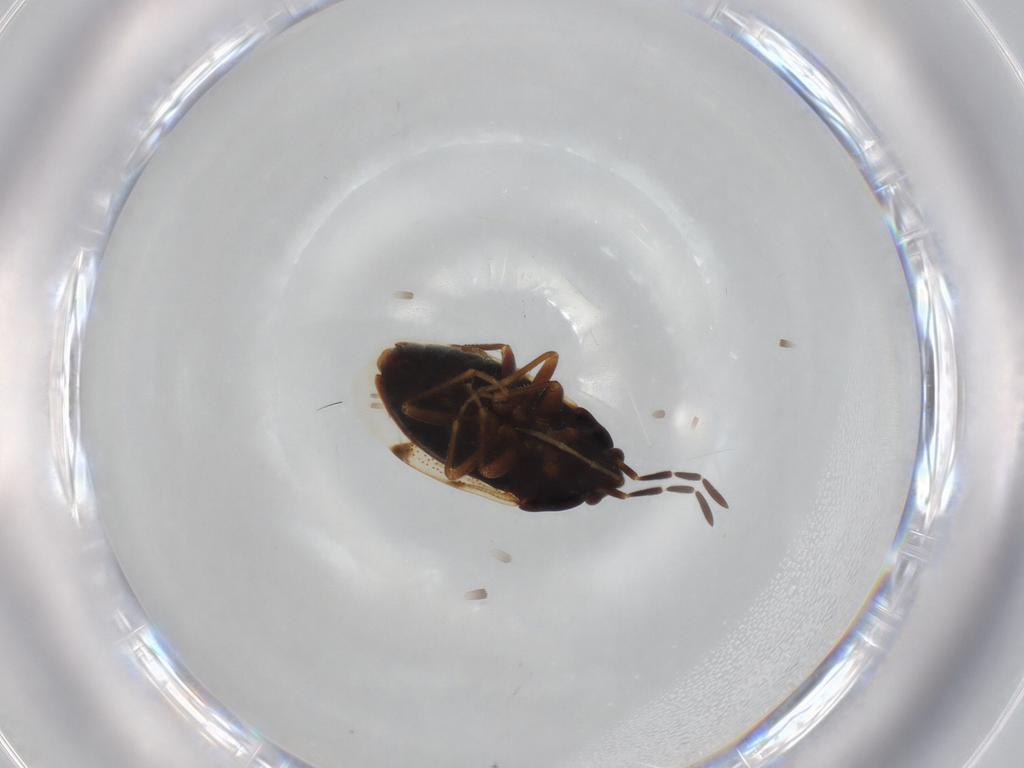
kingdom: Animalia
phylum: Arthropoda
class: Insecta
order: Hemiptera
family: Rhyparochromidae
